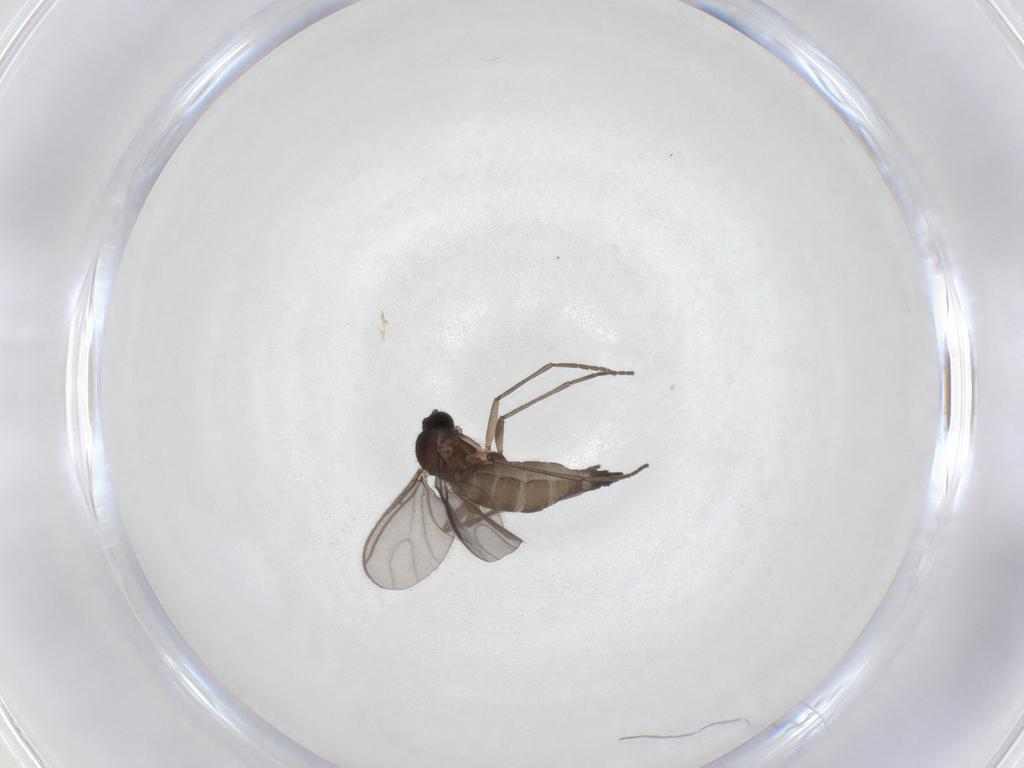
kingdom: Animalia
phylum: Arthropoda
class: Insecta
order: Diptera
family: Sciaridae
